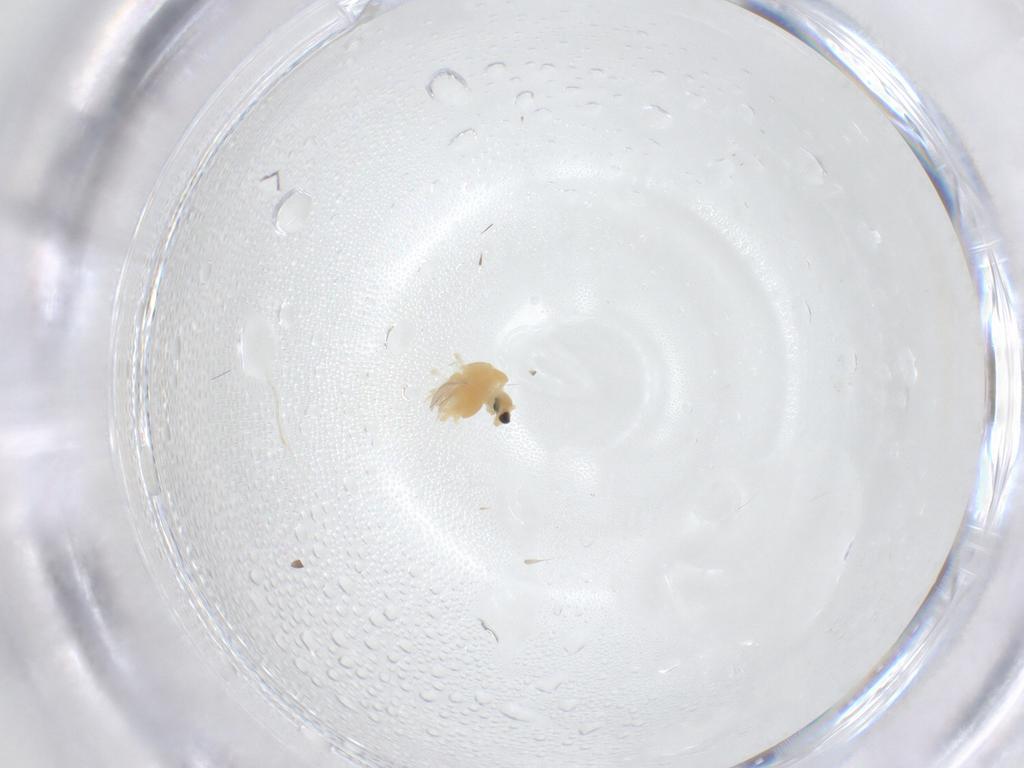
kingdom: Animalia
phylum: Arthropoda
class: Insecta
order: Diptera
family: Chironomidae
